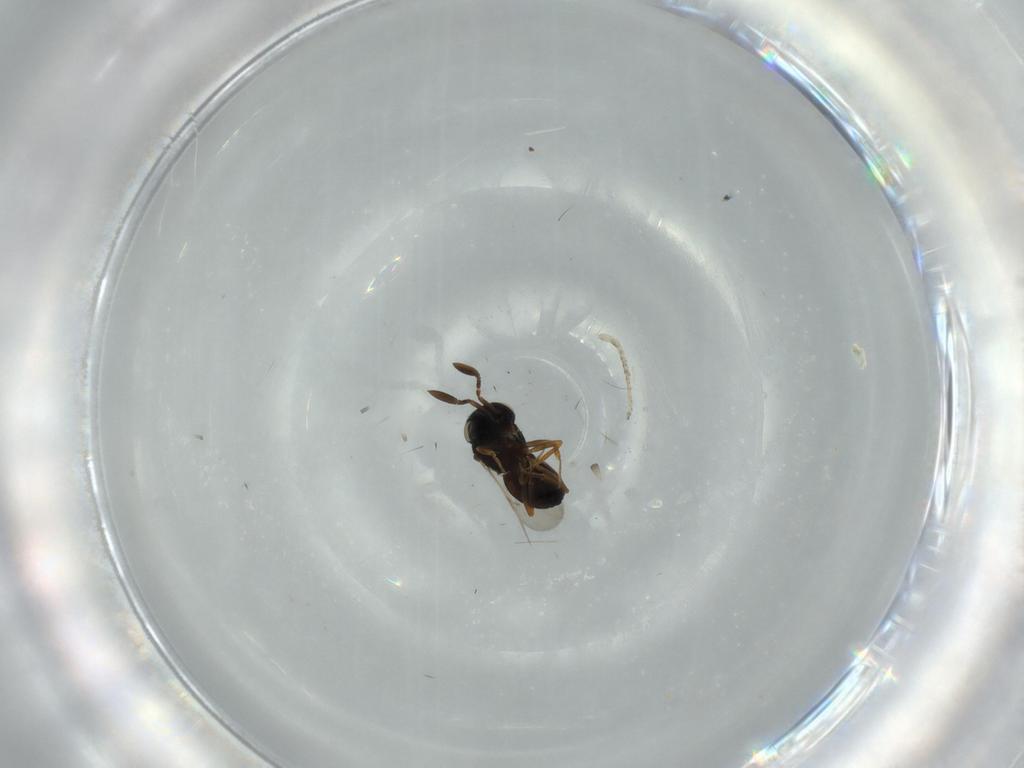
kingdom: Animalia
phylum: Arthropoda
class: Insecta
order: Coleoptera
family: Curculionidae
